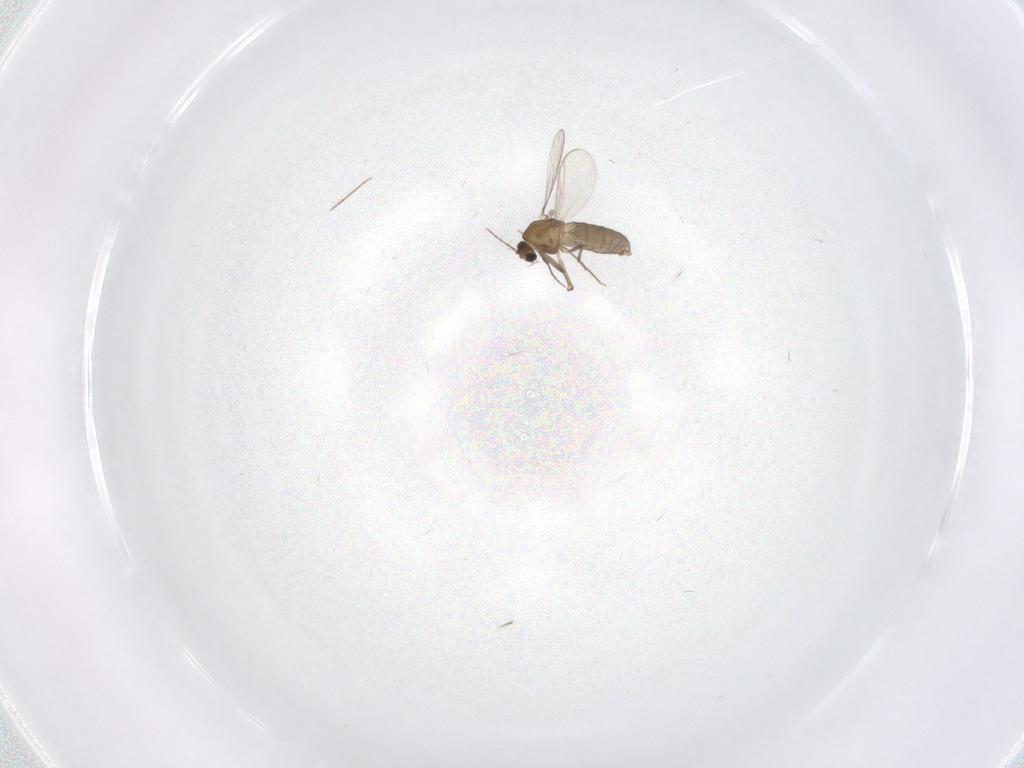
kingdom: Animalia
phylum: Arthropoda
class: Insecta
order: Diptera
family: Chironomidae
